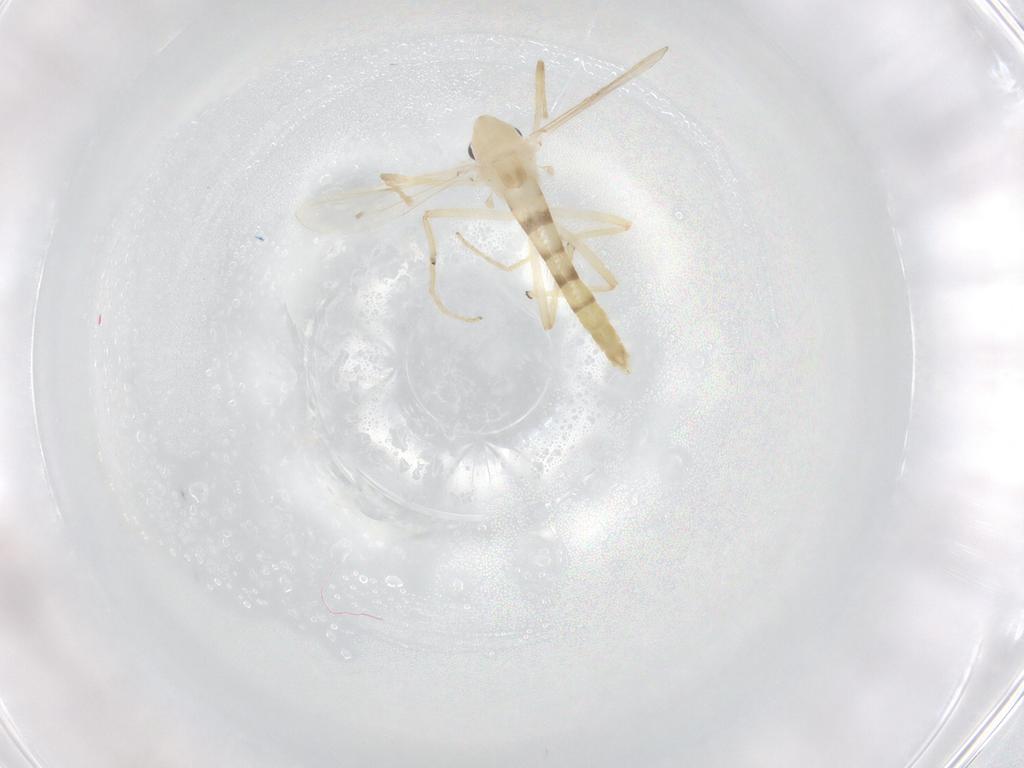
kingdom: Animalia
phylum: Arthropoda
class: Insecta
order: Diptera
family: Chironomidae
